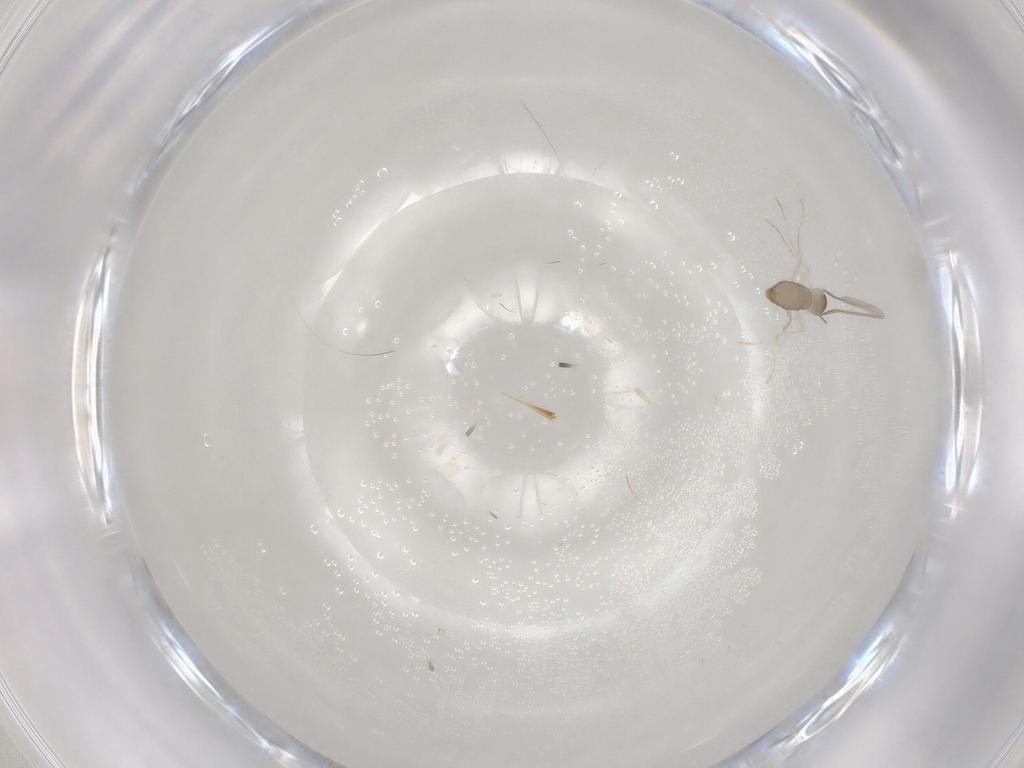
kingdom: Animalia
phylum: Arthropoda
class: Insecta
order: Diptera
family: Cecidomyiidae
